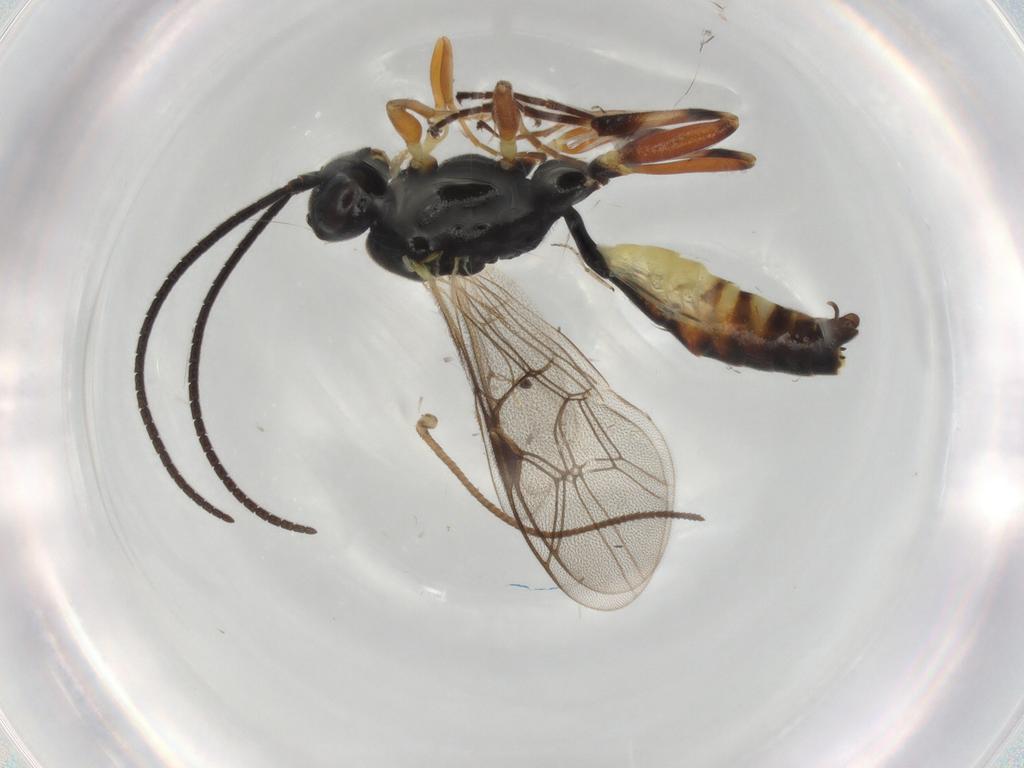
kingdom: Animalia
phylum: Arthropoda
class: Insecta
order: Hymenoptera
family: Ichneumonidae
